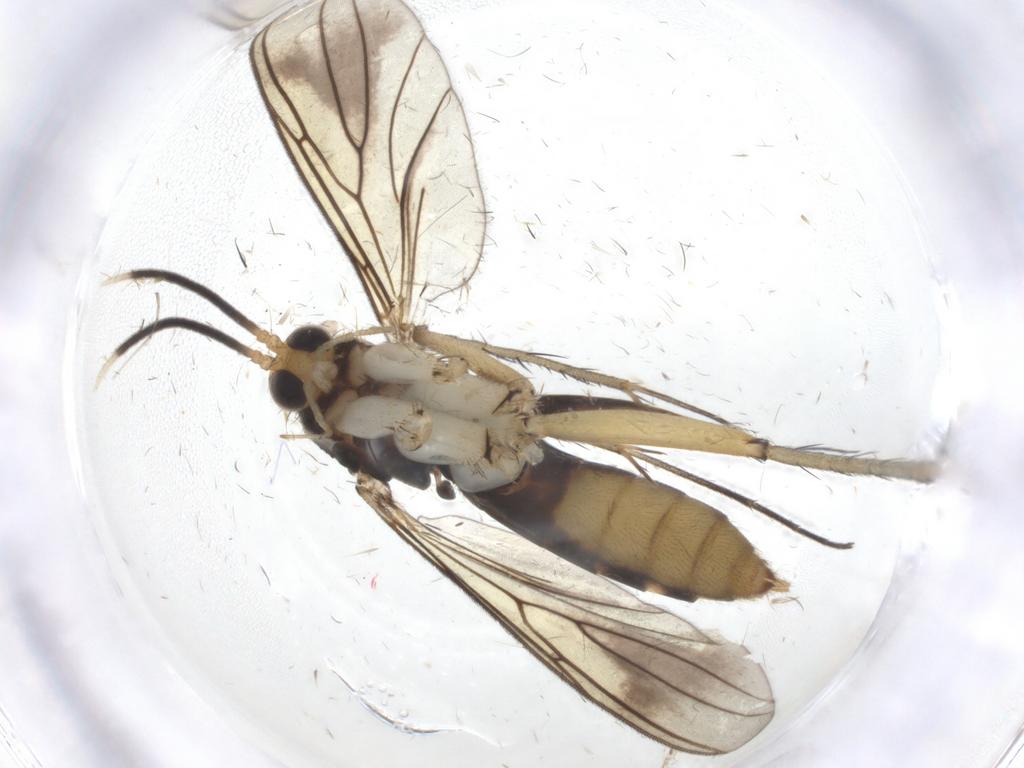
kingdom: Animalia
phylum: Arthropoda
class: Insecta
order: Diptera
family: Mycetophilidae
